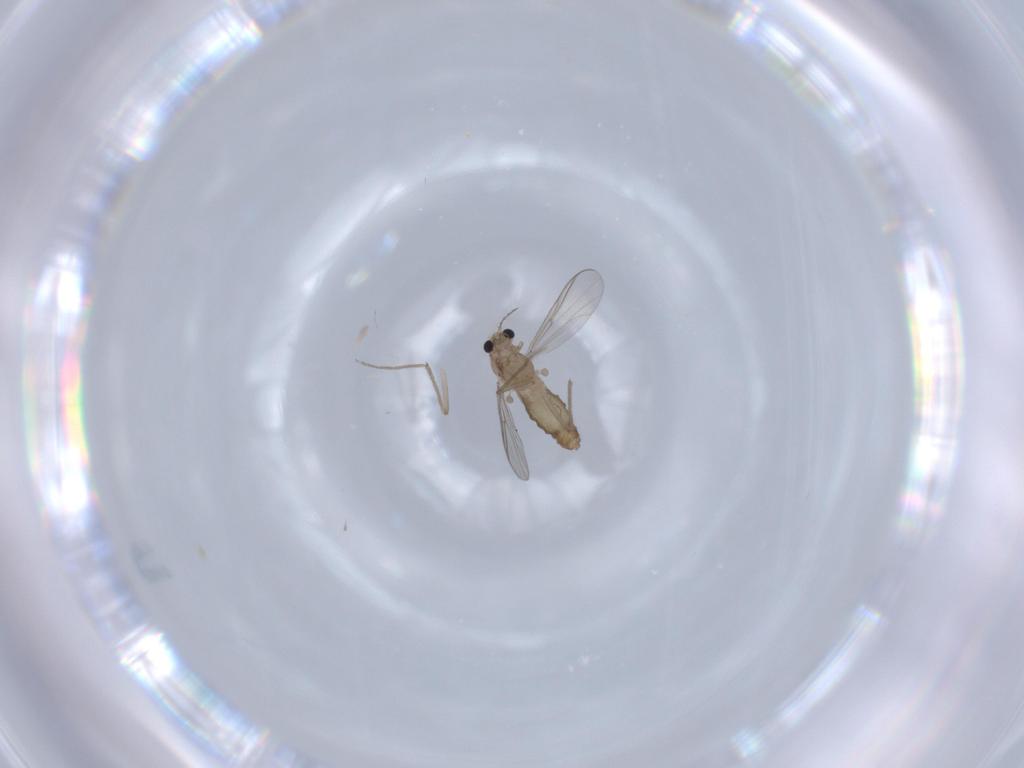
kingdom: Animalia
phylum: Arthropoda
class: Insecta
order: Diptera
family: Chironomidae
